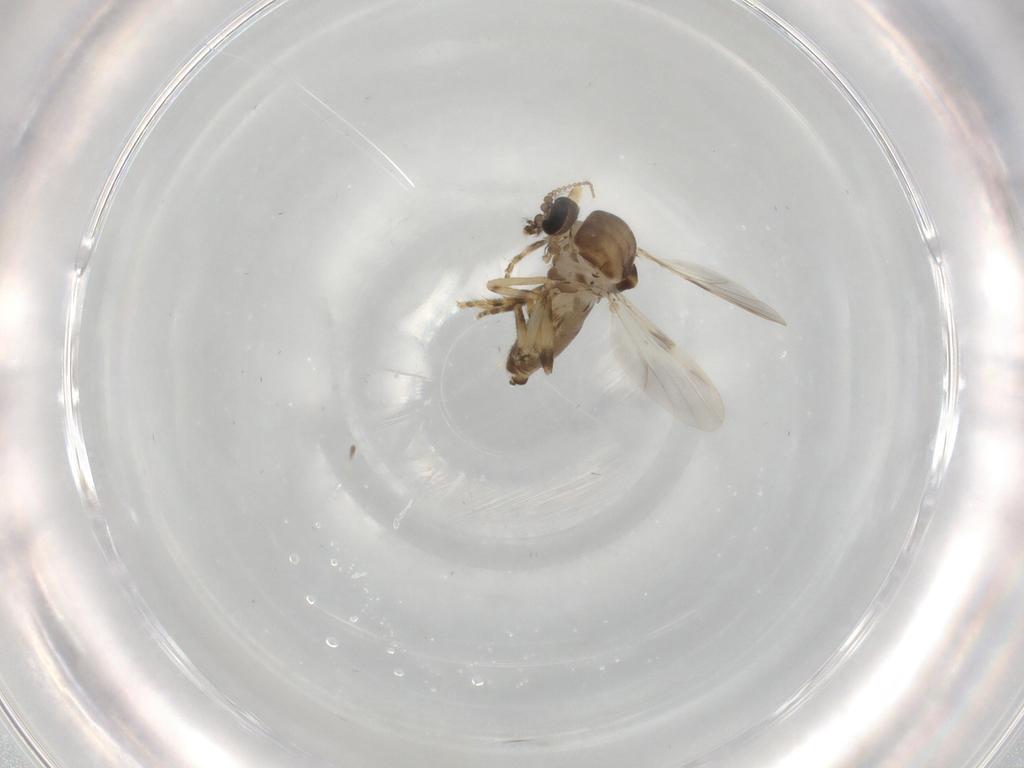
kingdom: Animalia
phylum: Arthropoda
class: Insecta
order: Diptera
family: Ceratopogonidae
